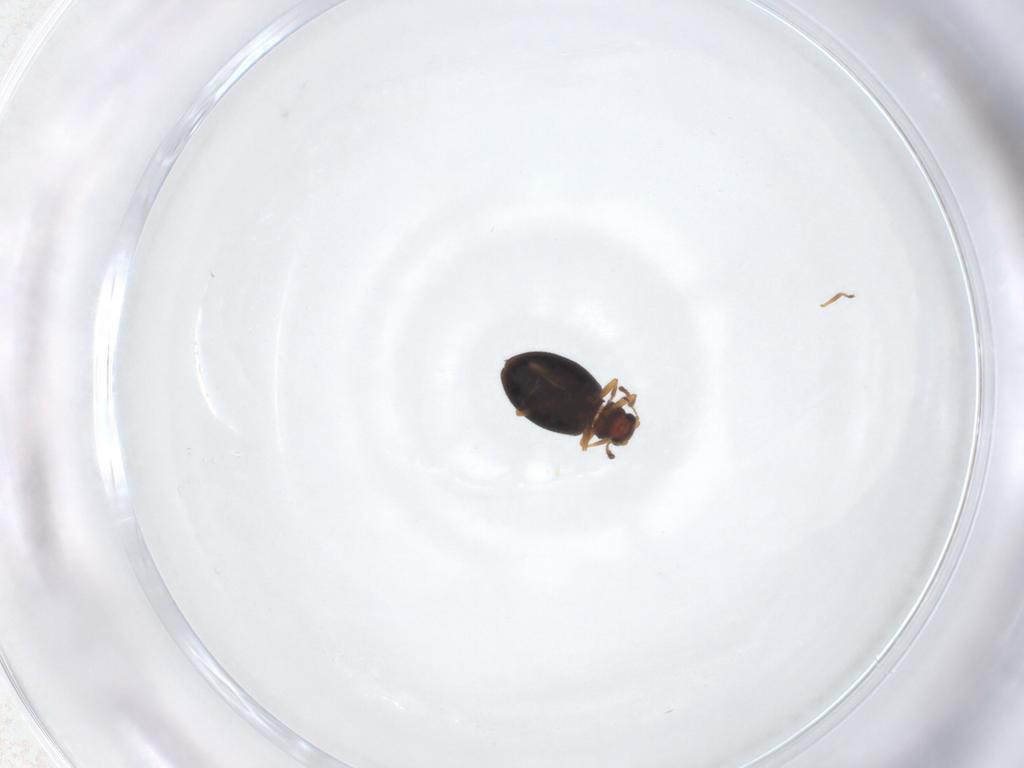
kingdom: Animalia
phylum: Arthropoda
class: Insecta
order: Coleoptera
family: Latridiidae
